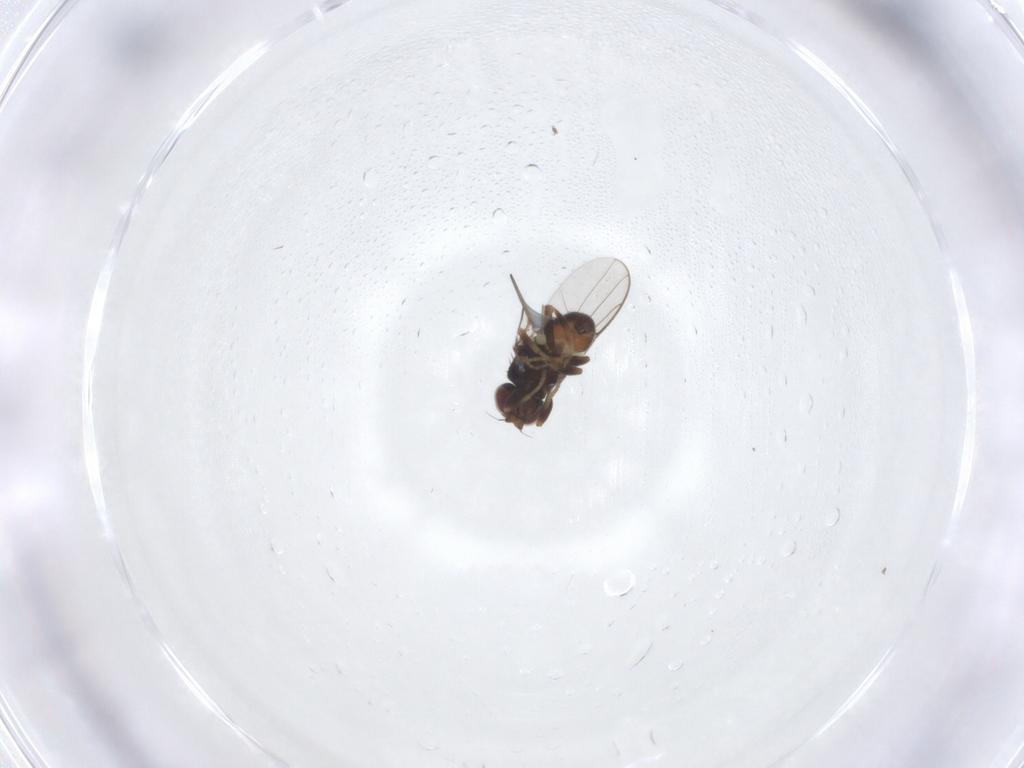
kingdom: Animalia
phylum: Arthropoda
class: Insecta
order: Diptera
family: Chloropidae
